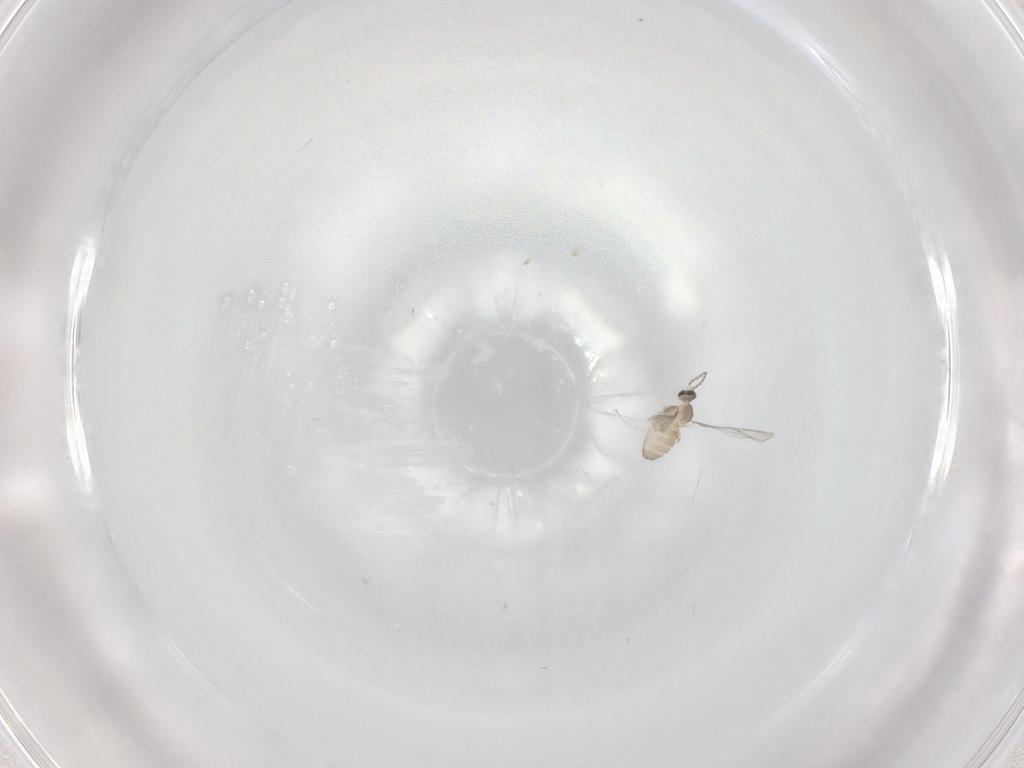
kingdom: Animalia
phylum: Arthropoda
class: Insecta
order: Diptera
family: Cecidomyiidae
